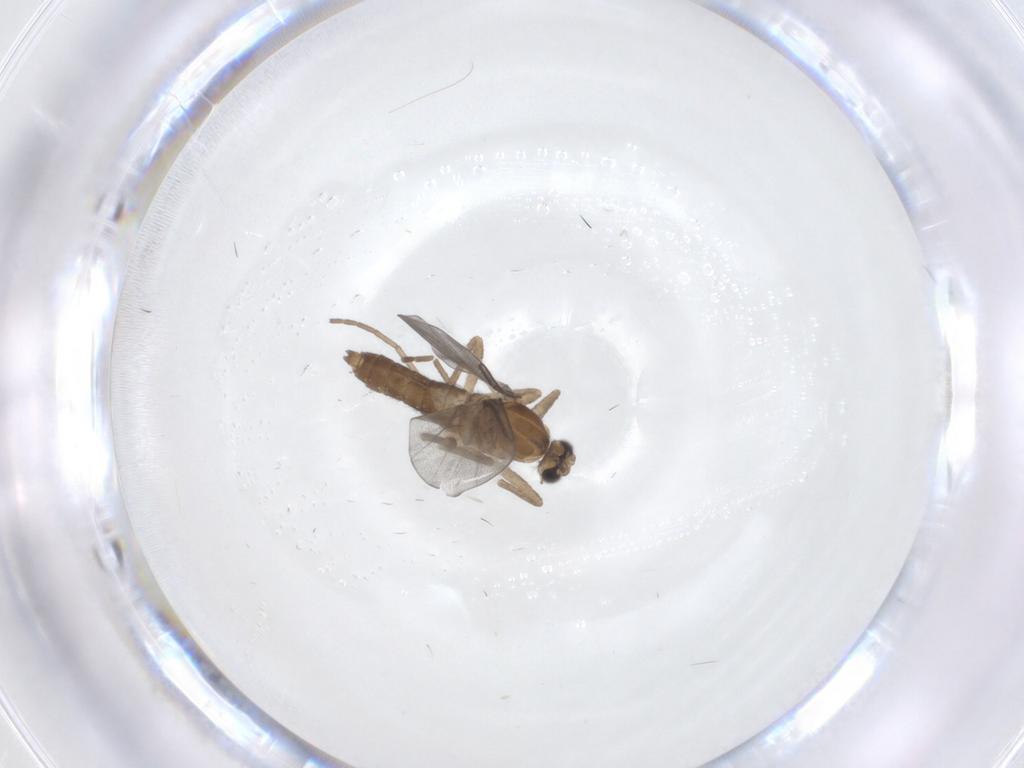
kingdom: Animalia
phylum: Arthropoda
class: Insecta
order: Diptera
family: Cecidomyiidae
